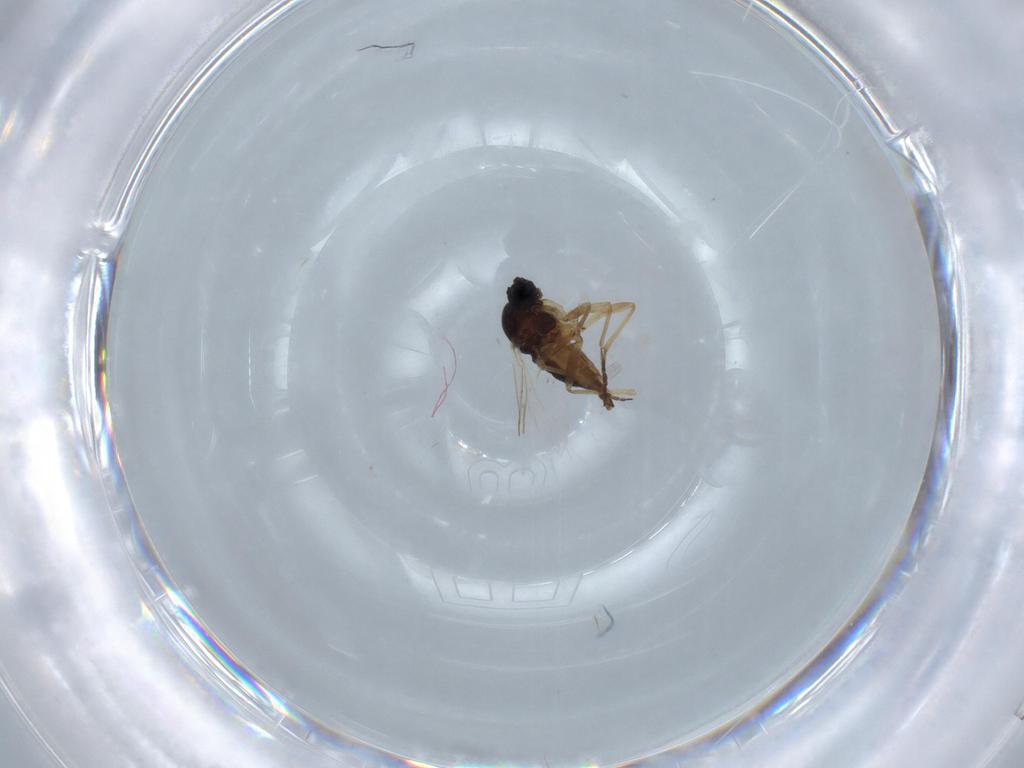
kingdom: Animalia
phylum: Arthropoda
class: Insecta
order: Diptera
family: Sciaridae
